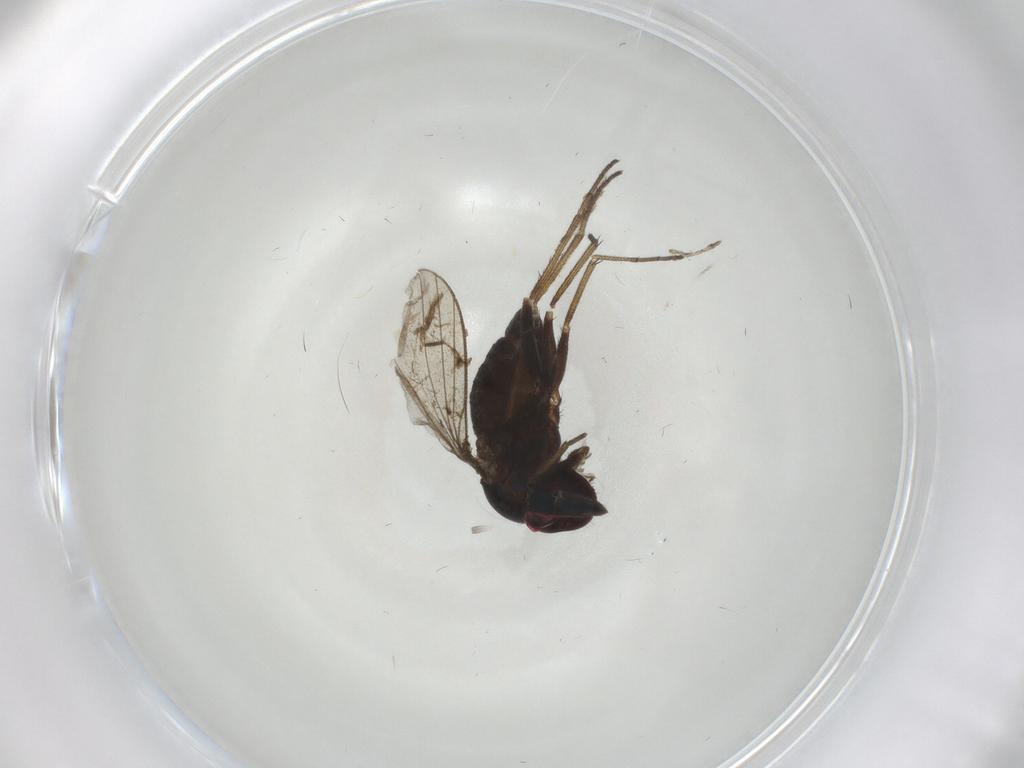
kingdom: Animalia
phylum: Arthropoda
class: Insecta
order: Diptera
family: Dolichopodidae
